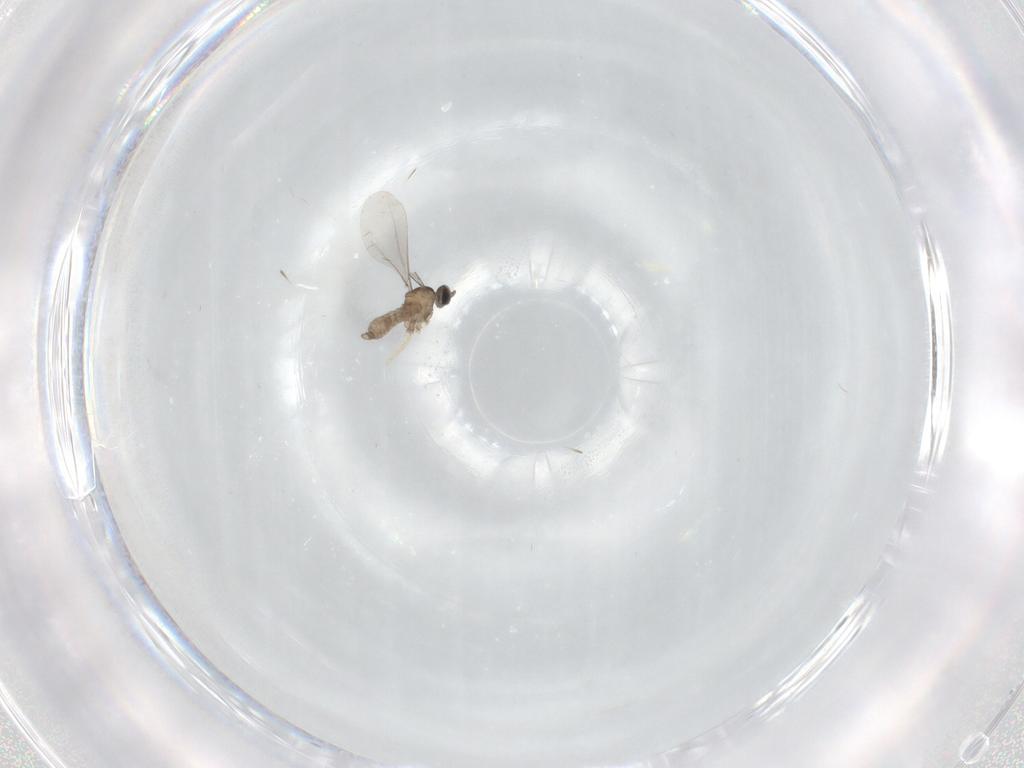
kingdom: Animalia
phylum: Arthropoda
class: Insecta
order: Diptera
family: Cecidomyiidae
